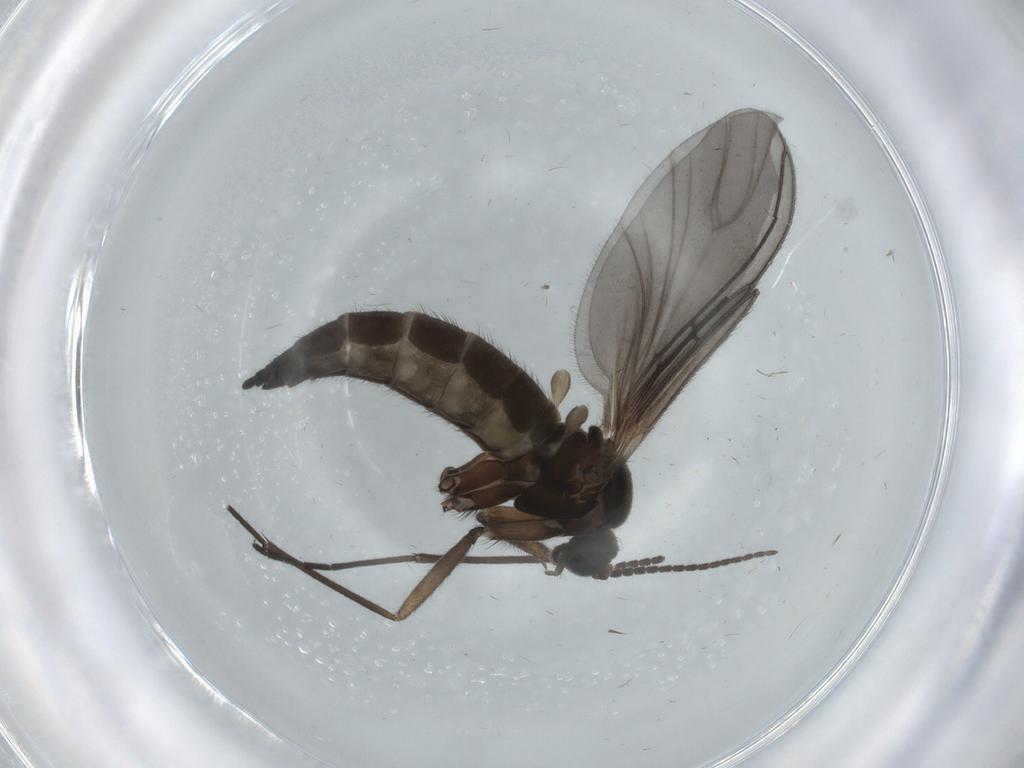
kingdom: Animalia
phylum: Arthropoda
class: Insecta
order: Diptera
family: Sciaridae
